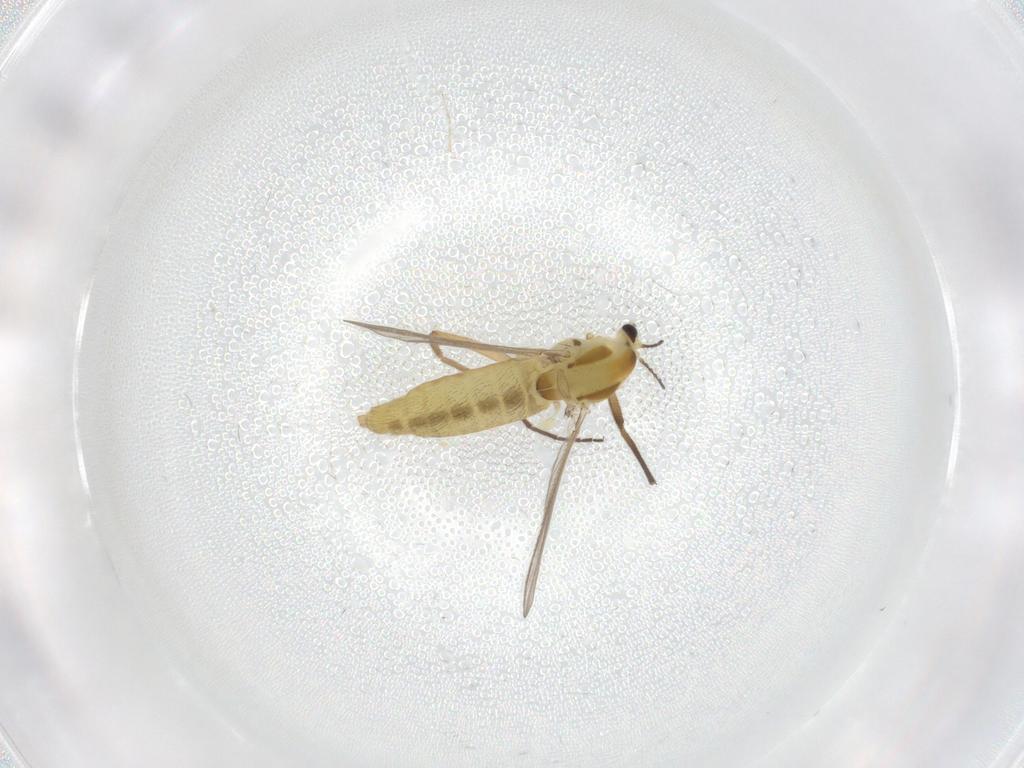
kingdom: Animalia
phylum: Arthropoda
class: Insecta
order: Diptera
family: Chironomidae
